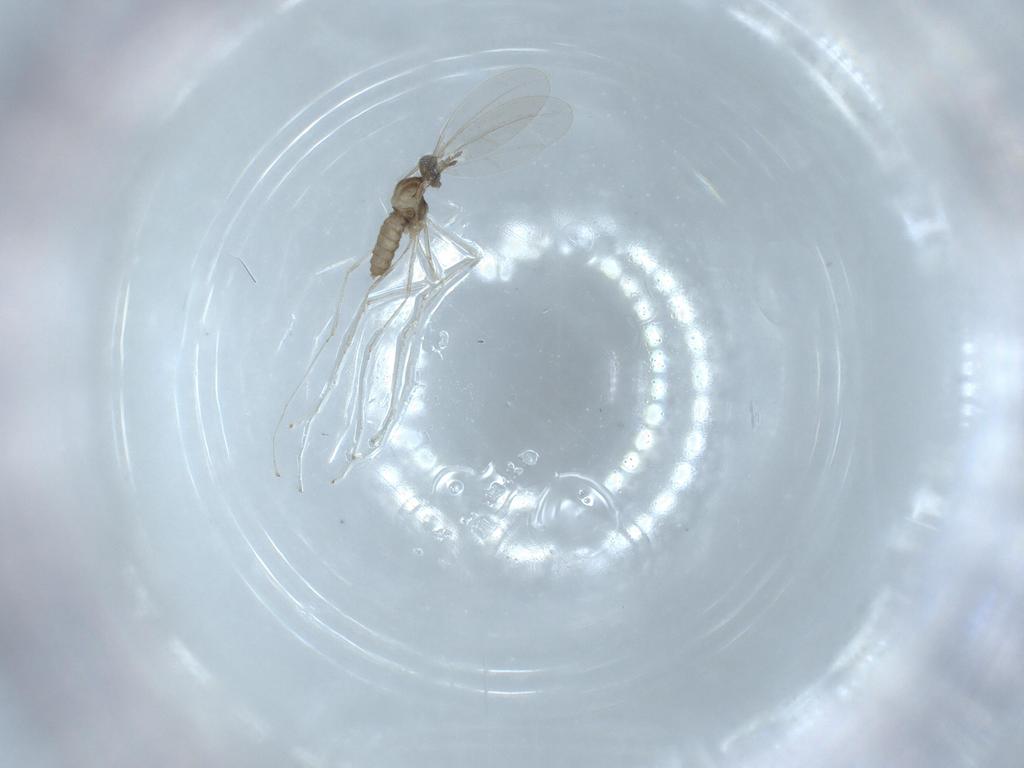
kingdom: Animalia
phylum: Arthropoda
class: Insecta
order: Diptera
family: Cecidomyiidae
